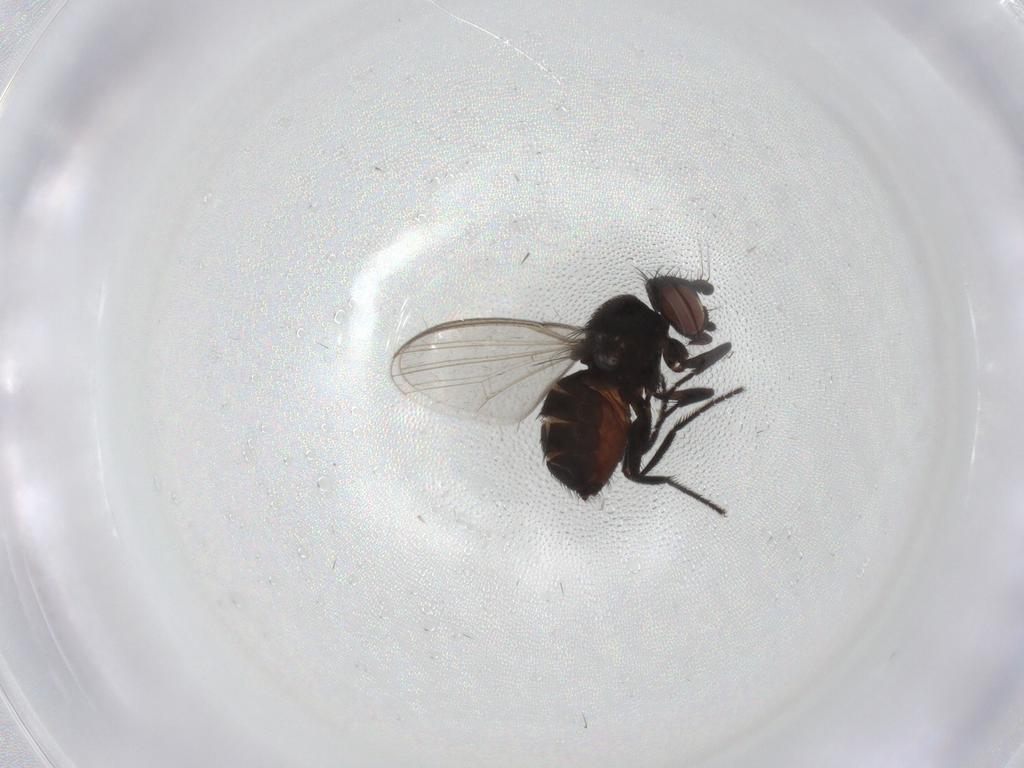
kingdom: Animalia
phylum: Arthropoda
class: Insecta
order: Diptera
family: Milichiidae
